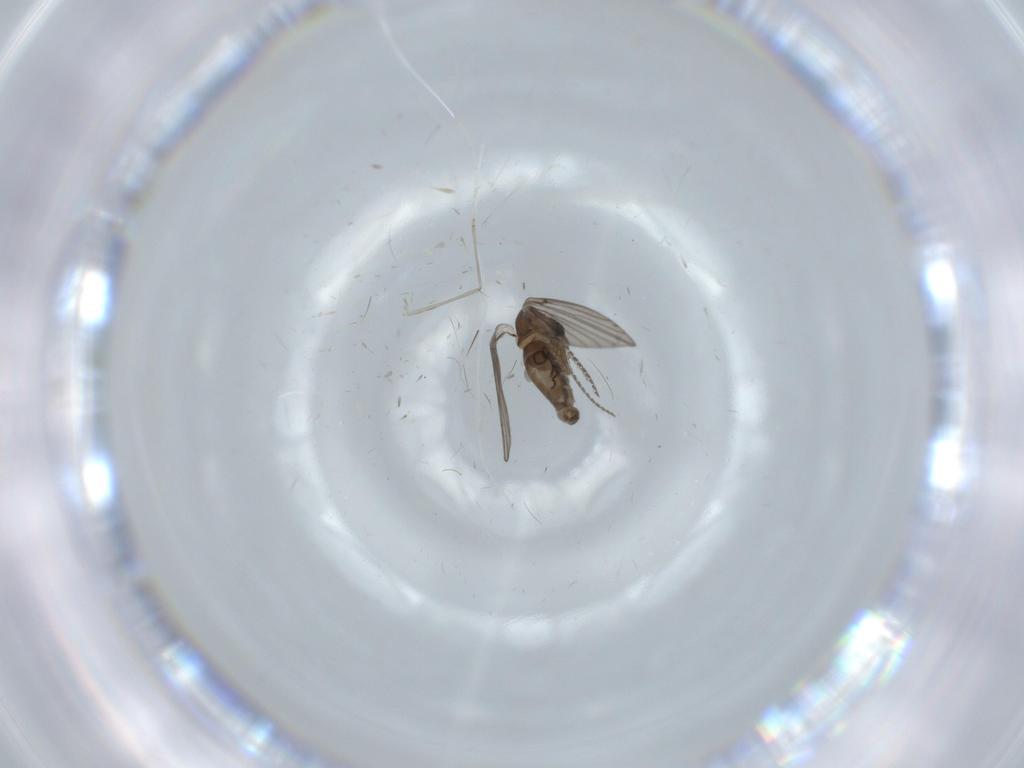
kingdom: Animalia
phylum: Arthropoda
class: Insecta
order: Diptera
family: Psychodidae
